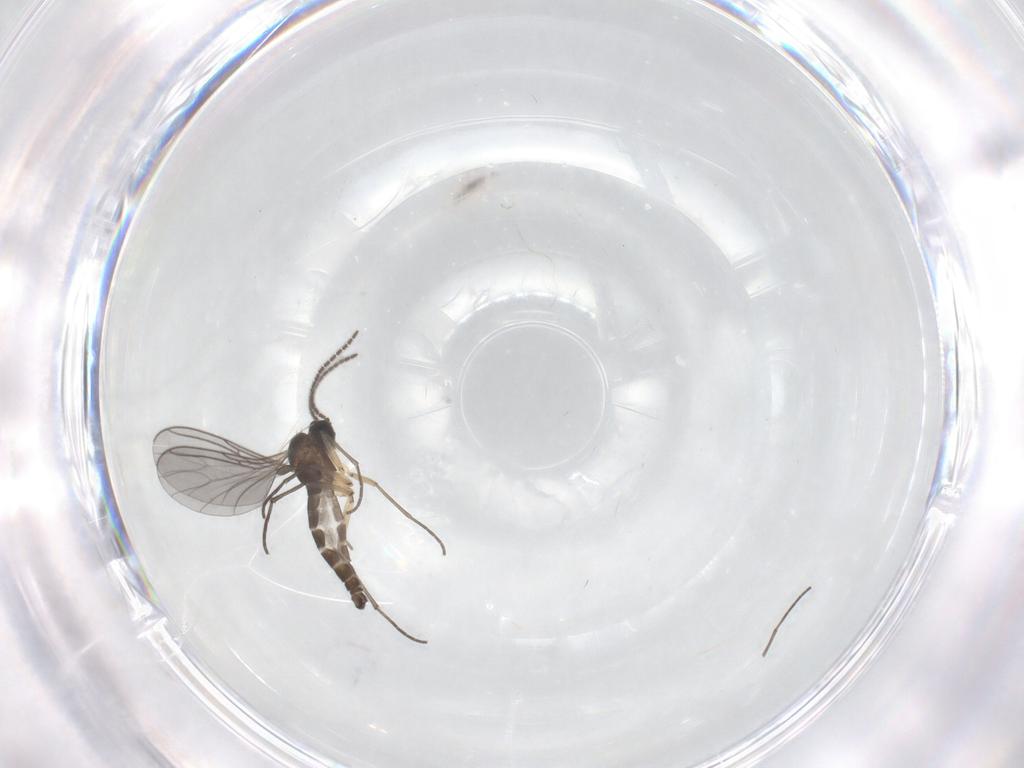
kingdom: Animalia
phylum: Arthropoda
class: Insecta
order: Diptera
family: Sciaridae
